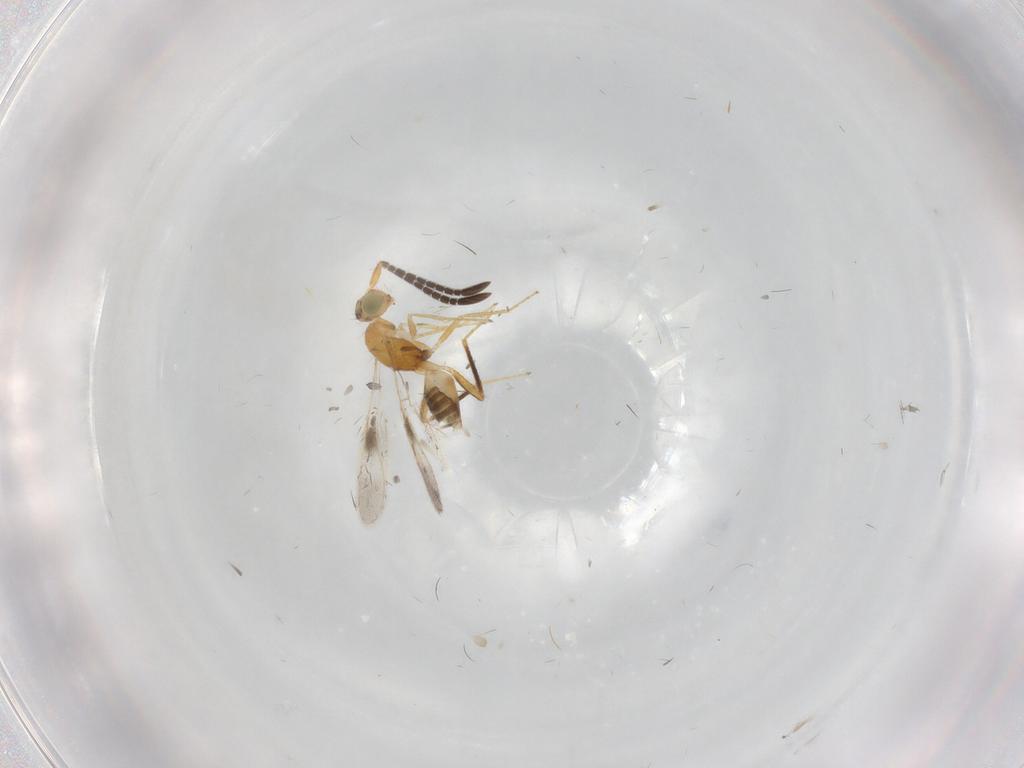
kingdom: Animalia
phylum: Arthropoda
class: Insecta
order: Hymenoptera
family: Mymaridae
